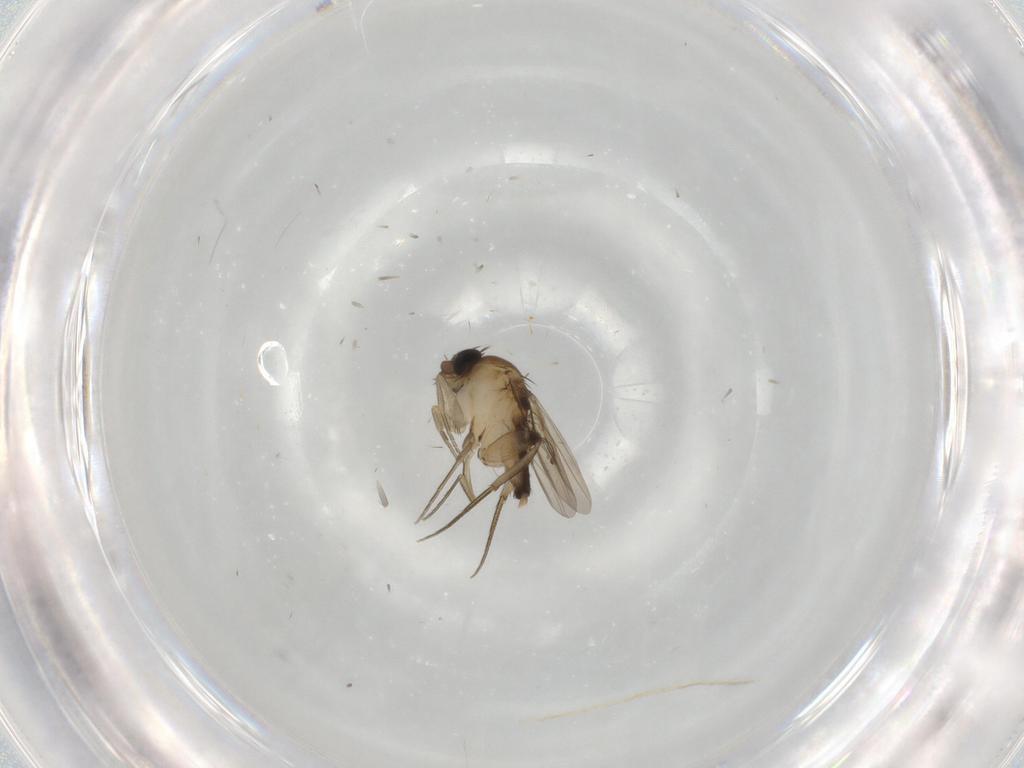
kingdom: Animalia
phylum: Arthropoda
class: Insecta
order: Diptera
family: Phoridae
